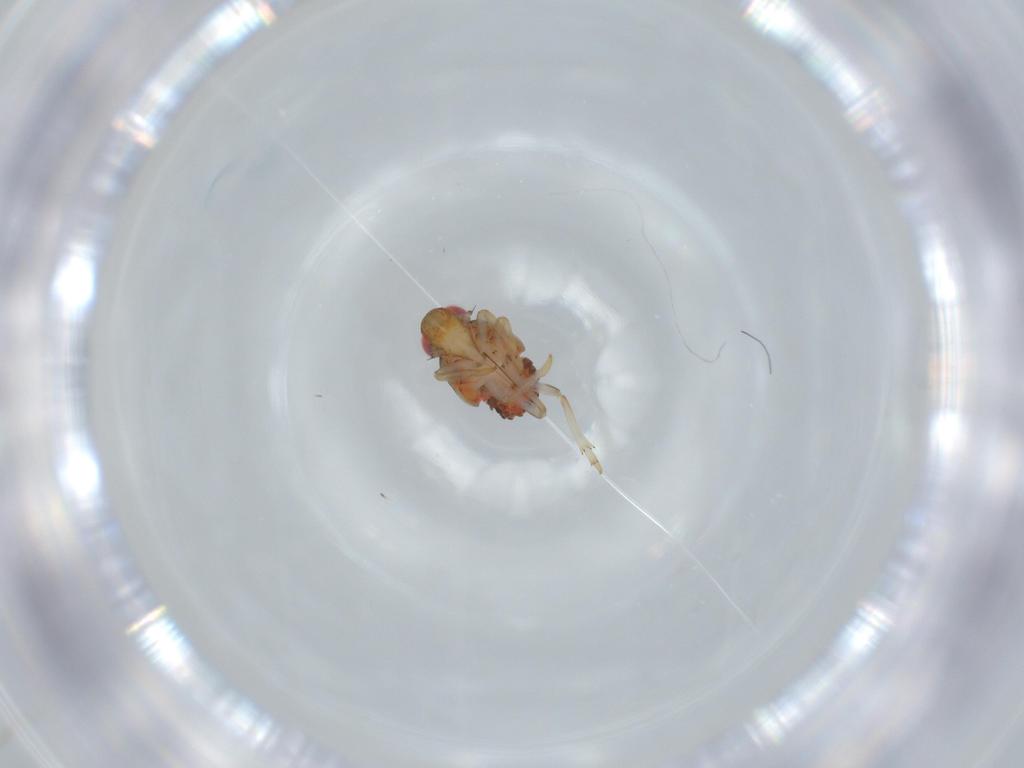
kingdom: Animalia
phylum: Arthropoda
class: Insecta
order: Hemiptera
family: Issidae
